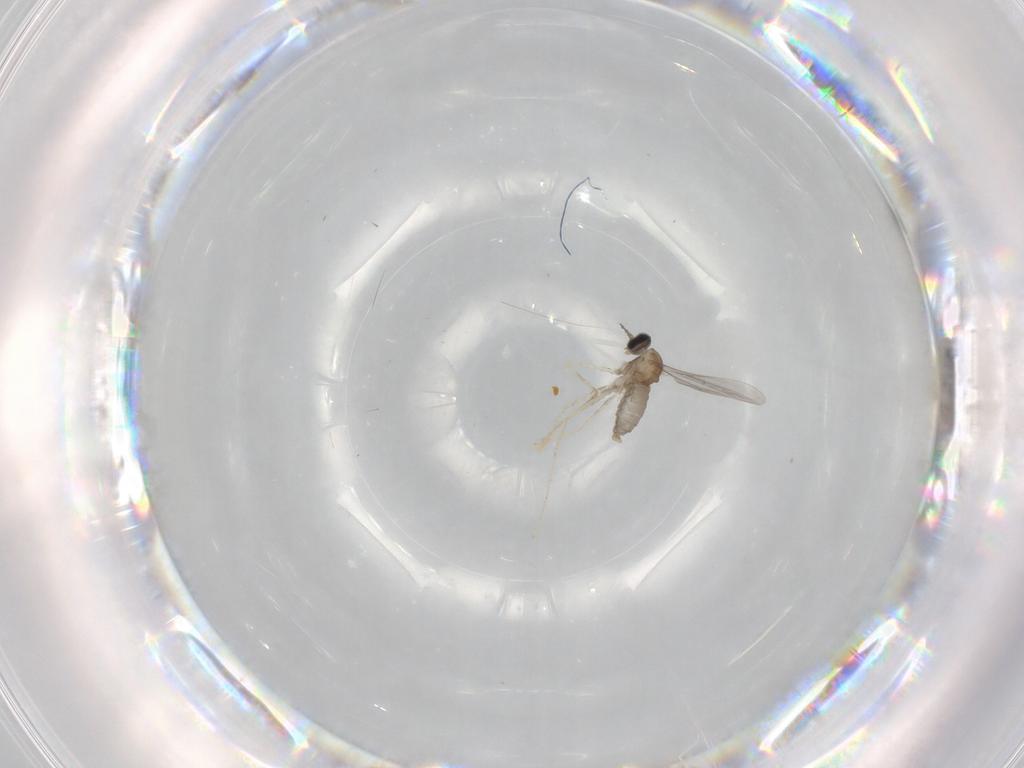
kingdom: Animalia
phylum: Arthropoda
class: Insecta
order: Diptera
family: Cecidomyiidae
